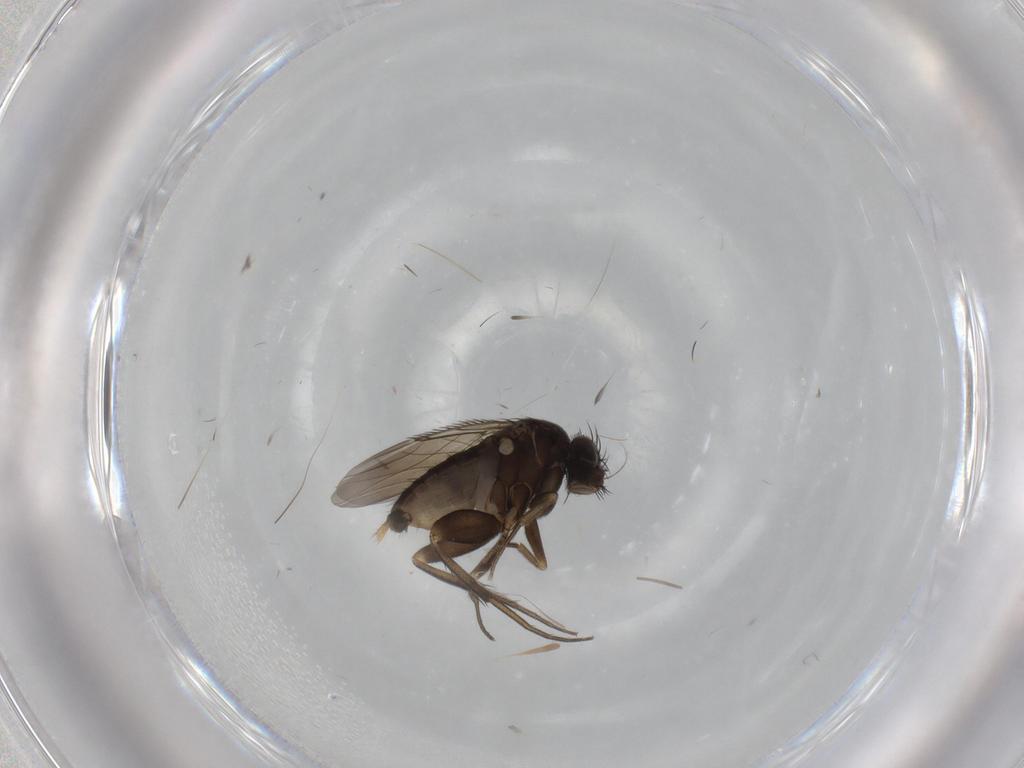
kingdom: Animalia
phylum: Arthropoda
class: Insecta
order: Diptera
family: Phoridae
